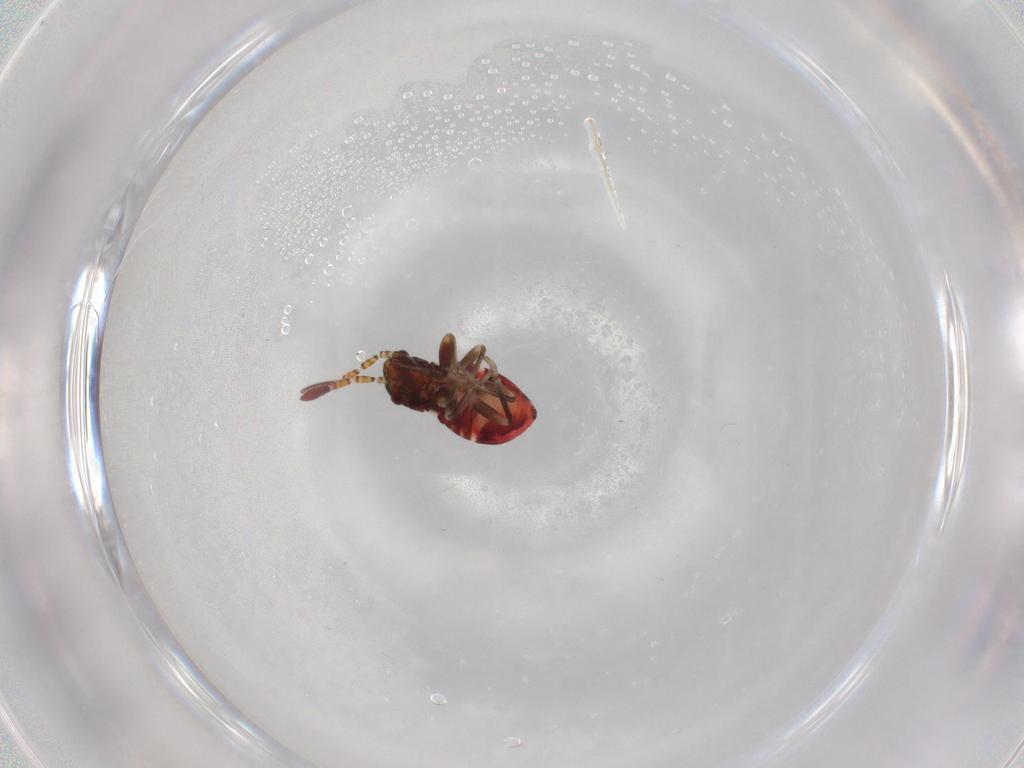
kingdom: Animalia
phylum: Arthropoda
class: Insecta
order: Hemiptera
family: Rhyparochromidae
